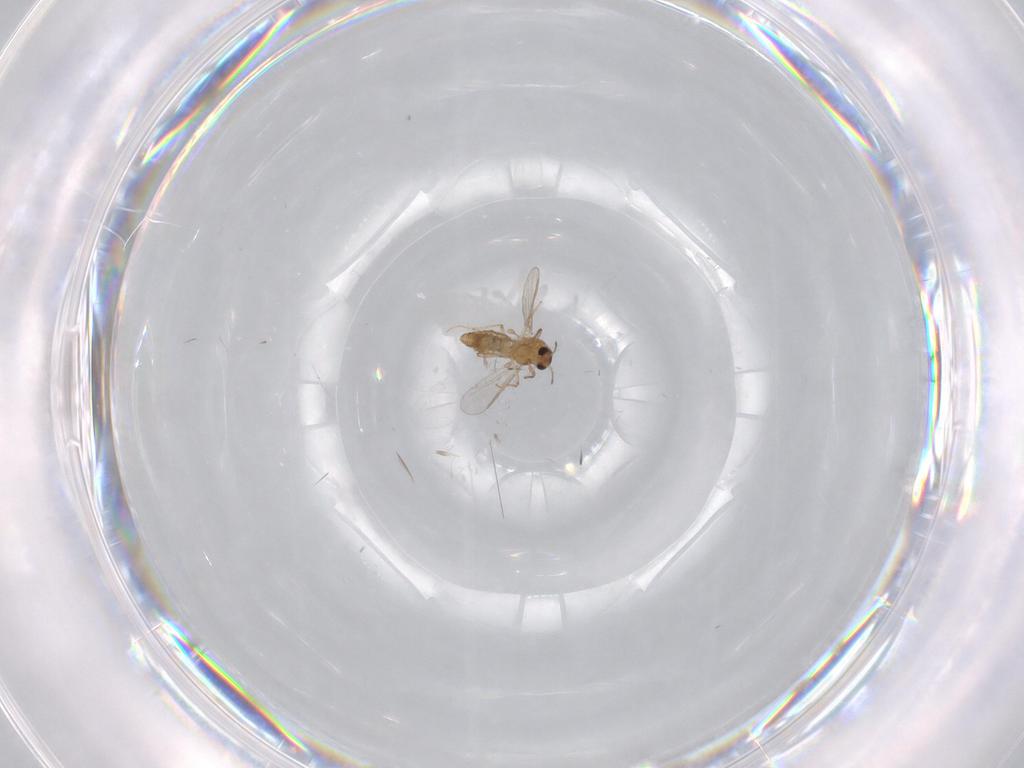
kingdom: Animalia
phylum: Arthropoda
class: Insecta
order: Diptera
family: Chironomidae
